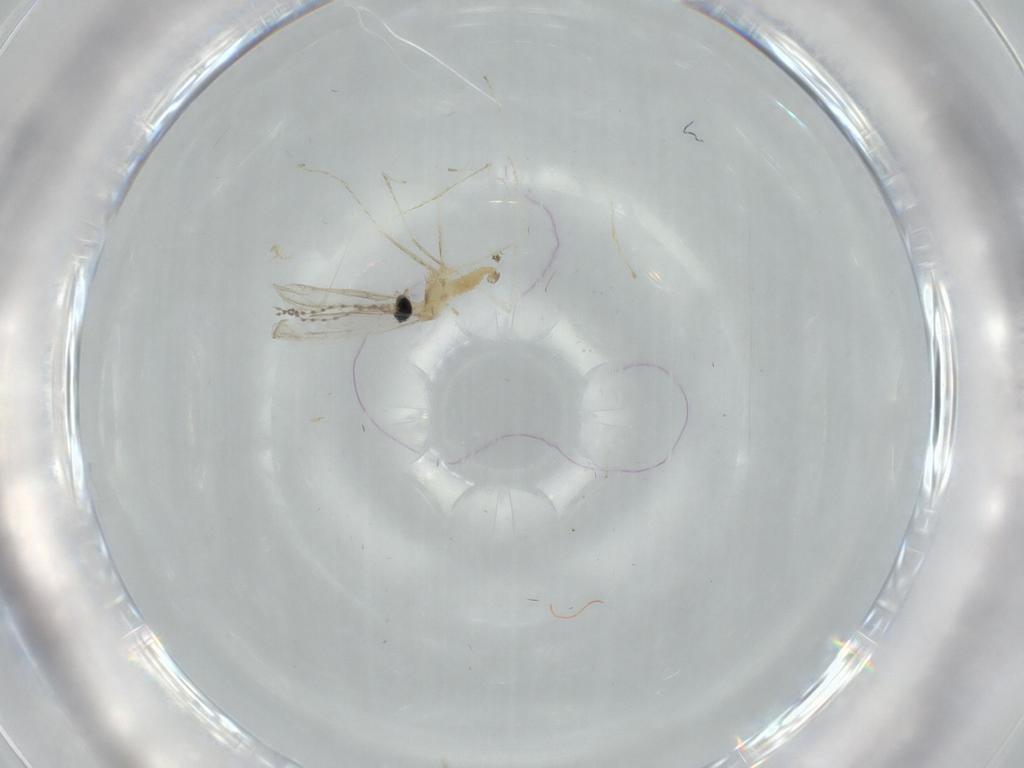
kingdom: Animalia
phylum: Arthropoda
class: Insecta
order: Diptera
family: Cecidomyiidae
